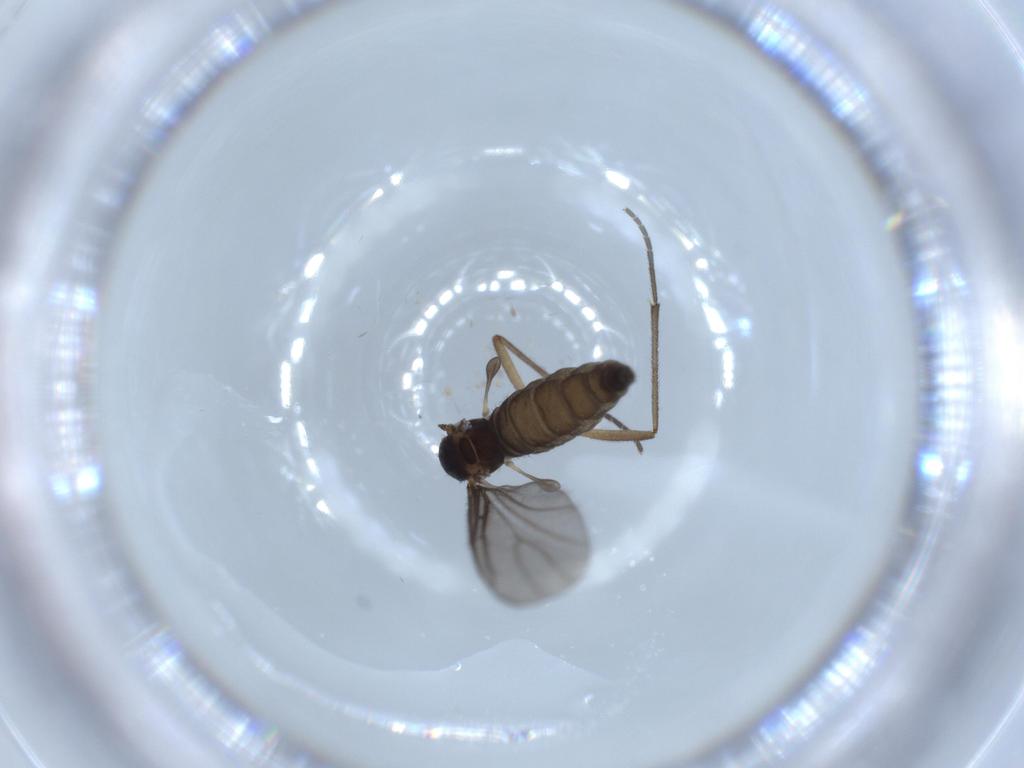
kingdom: Animalia
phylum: Arthropoda
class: Insecta
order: Diptera
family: Sciaridae
